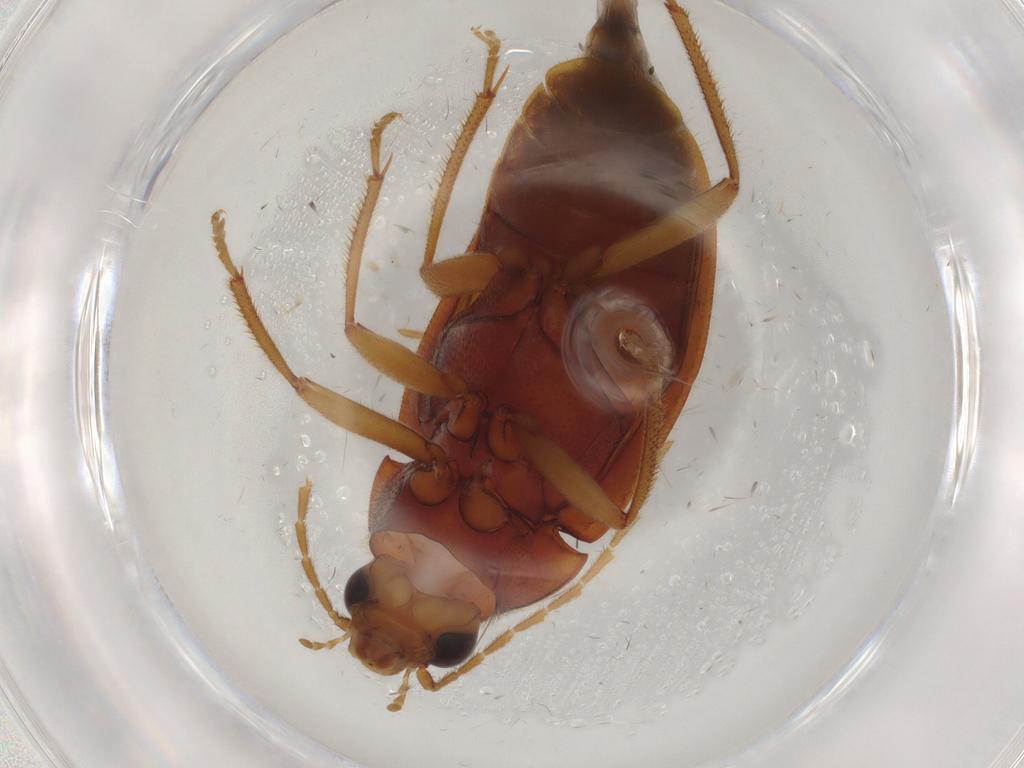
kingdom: Animalia
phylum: Arthropoda
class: Insecta
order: Coleoptera
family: Ptilodactylidae
